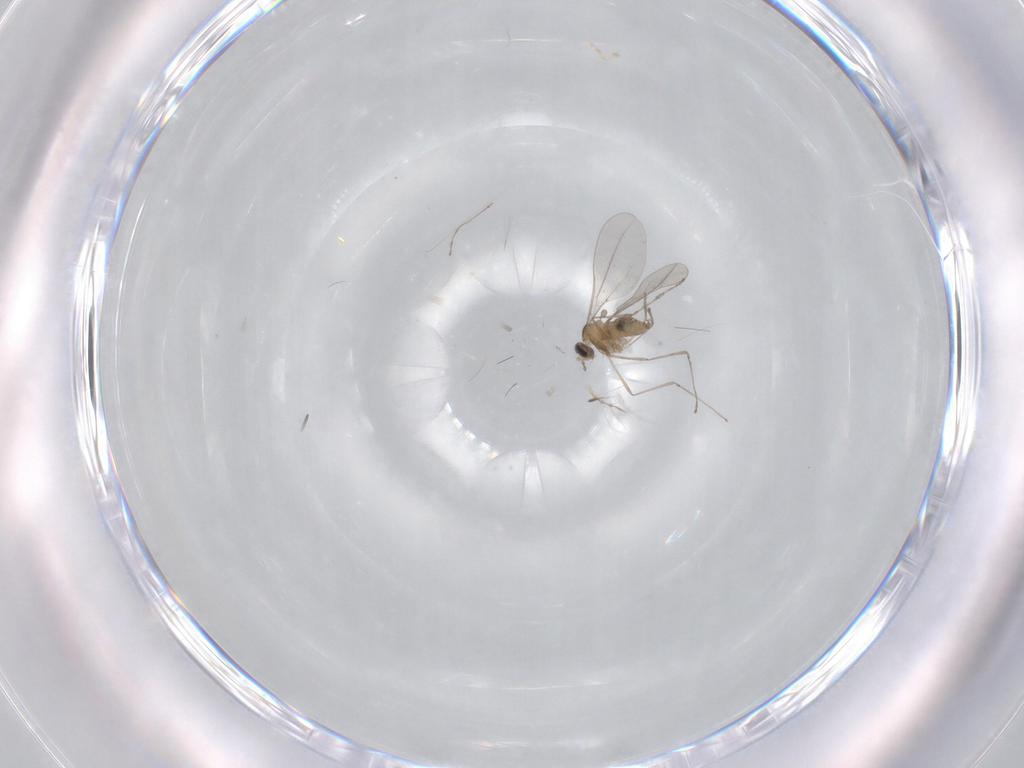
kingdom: Animalia
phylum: Arthropoda
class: Insecta
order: Diptera
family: Cecidomyiidae
